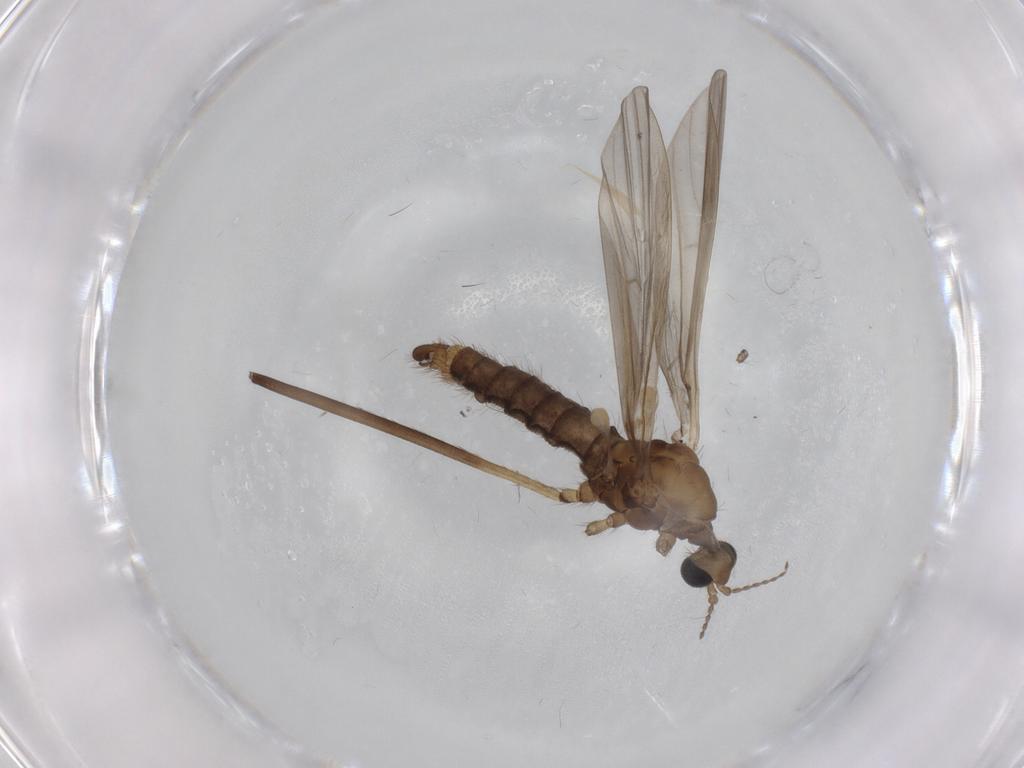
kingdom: Animalia
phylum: Arthropoda
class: Insecta
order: Diptera
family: Limoniidae
